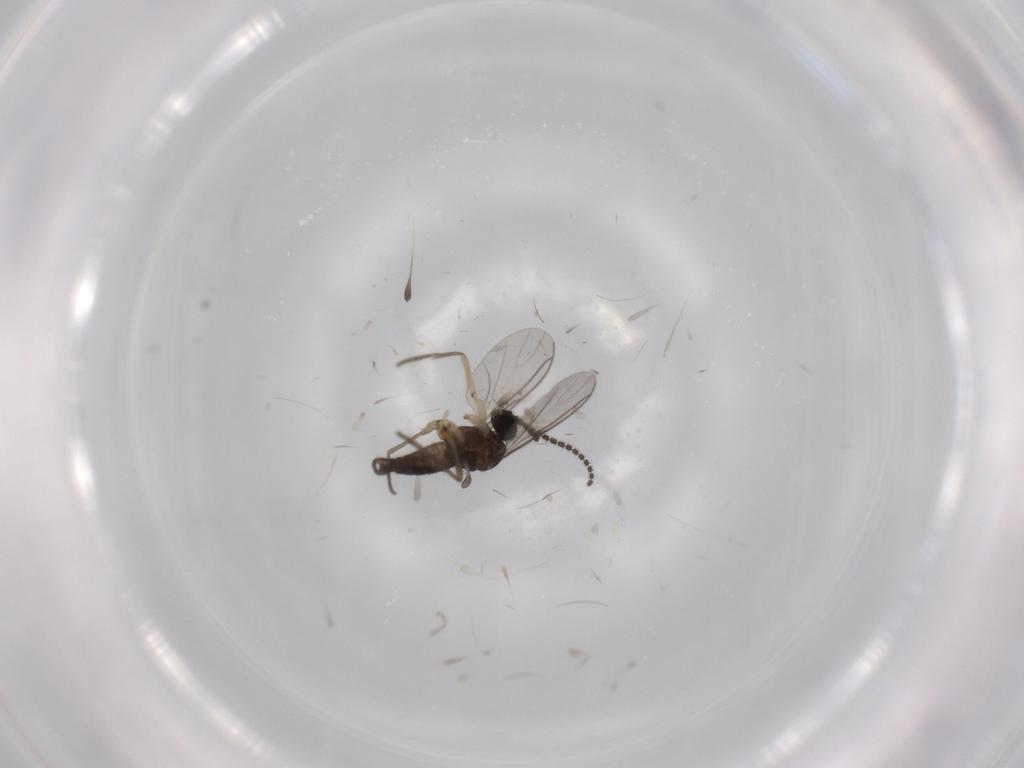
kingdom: Animalia
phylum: Arthropoda
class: Insecta
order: Diptera
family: Sciaridae
